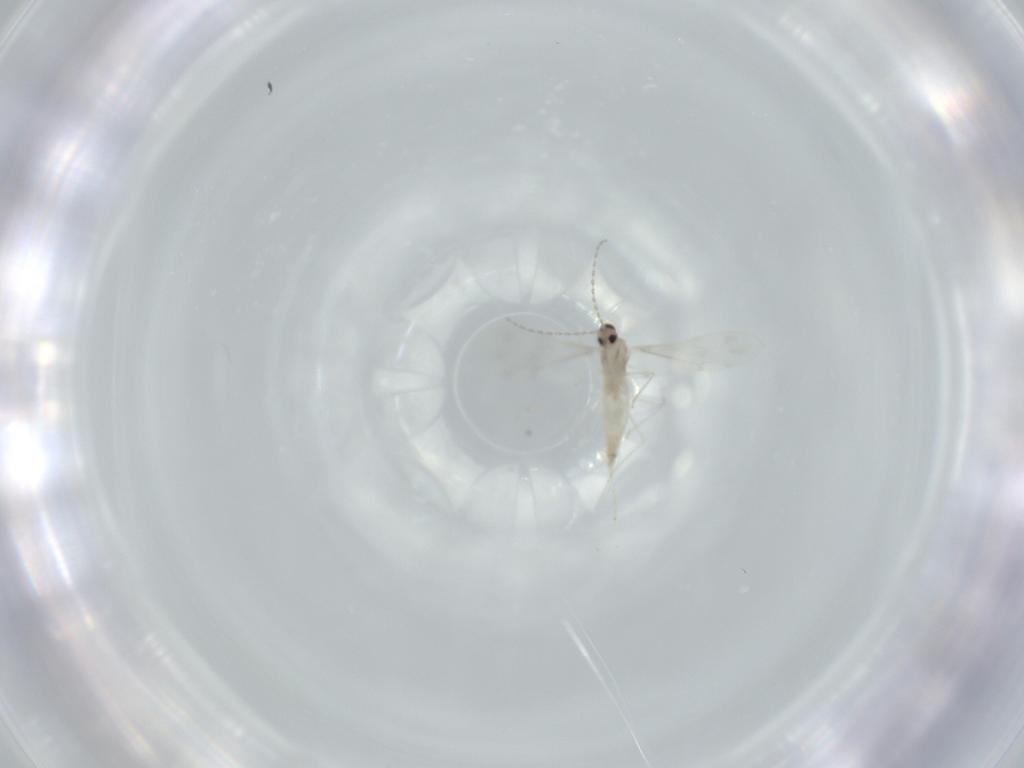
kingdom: Animalia
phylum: Arthropoda
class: Insecta
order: Diptera
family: Cecidomyiidae
